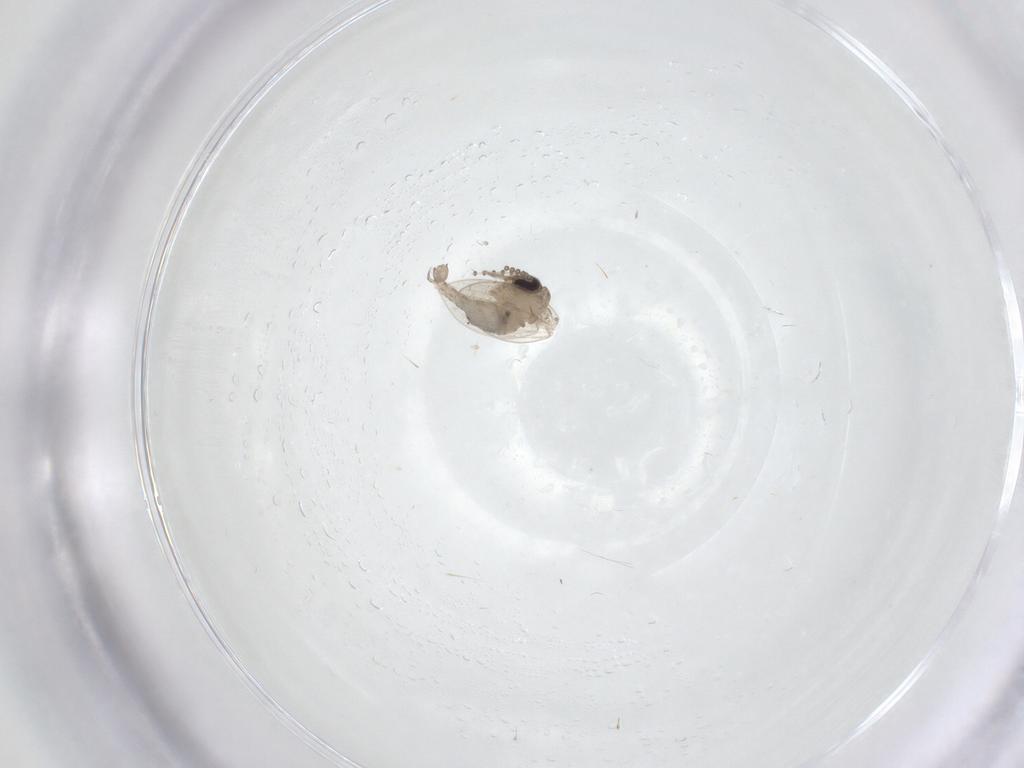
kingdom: Animalia
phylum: Arthropoda
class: Insecta
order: Diptera
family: Psychodidae
